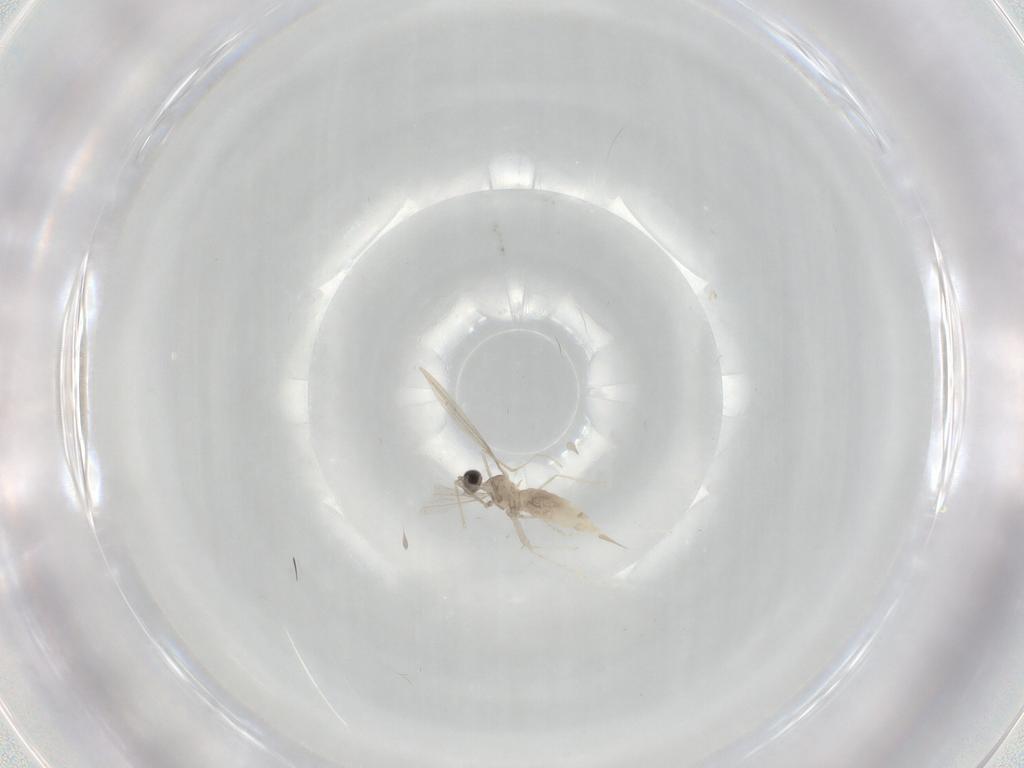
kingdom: Animalia
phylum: Arthropoda
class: Insecta
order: Diptera
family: Cecidomyiidae
